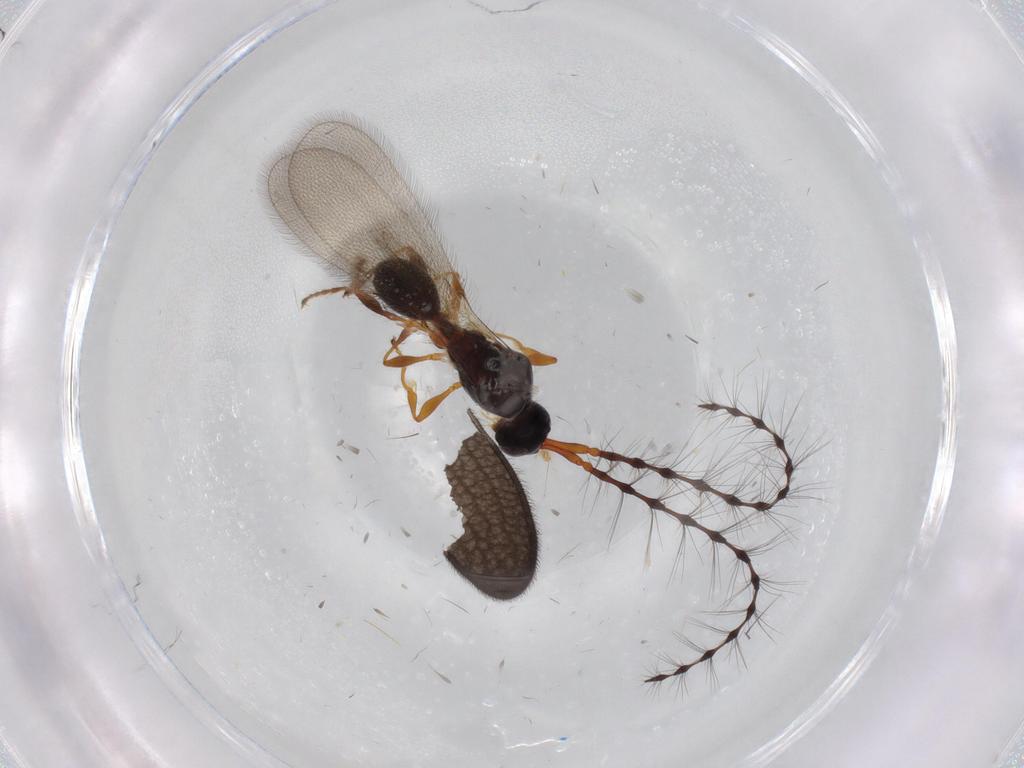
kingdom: Animalia
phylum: Arthropoda
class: Insecta
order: Hymenoptera
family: Diapriidae
